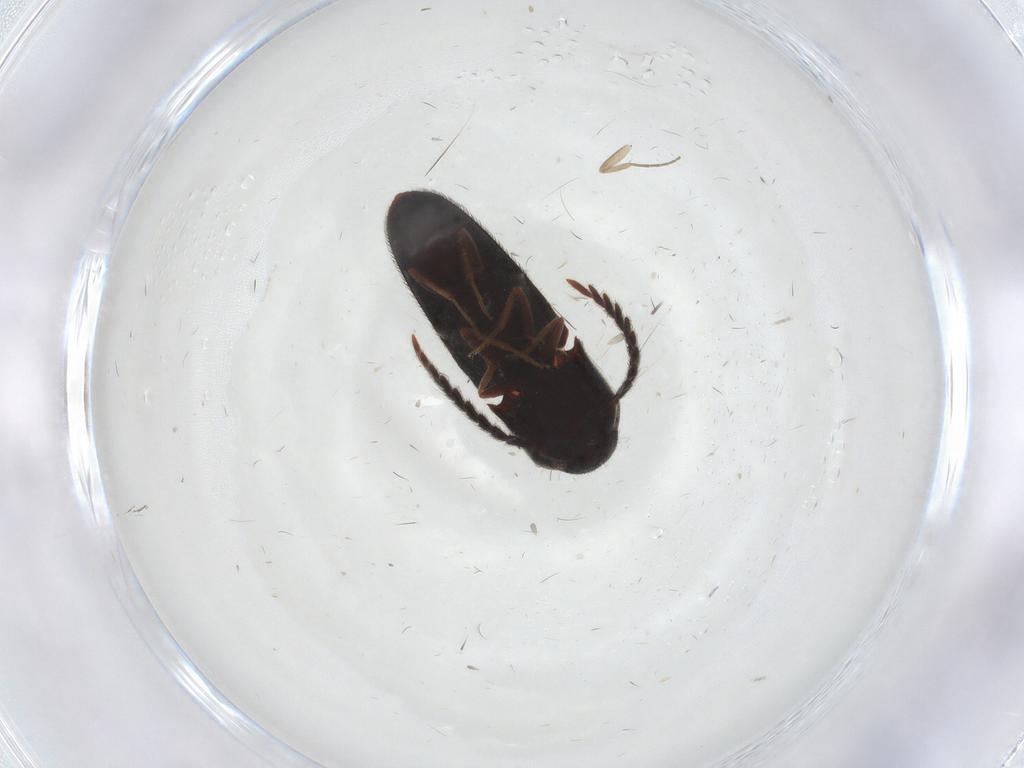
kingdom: Animalia
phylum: Arthropoda
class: Insecta
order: Coleoptera
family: Eucnemidae
